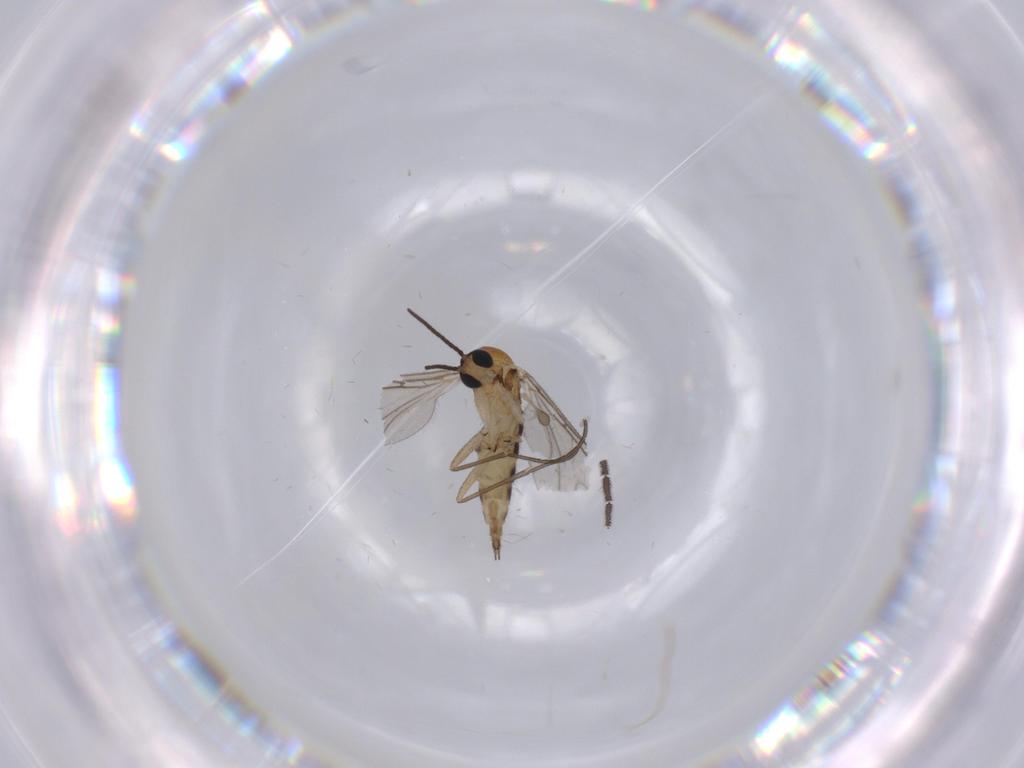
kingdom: Animalia
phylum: Arthropoda
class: Insecta
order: Diptera
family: Sciaridae
